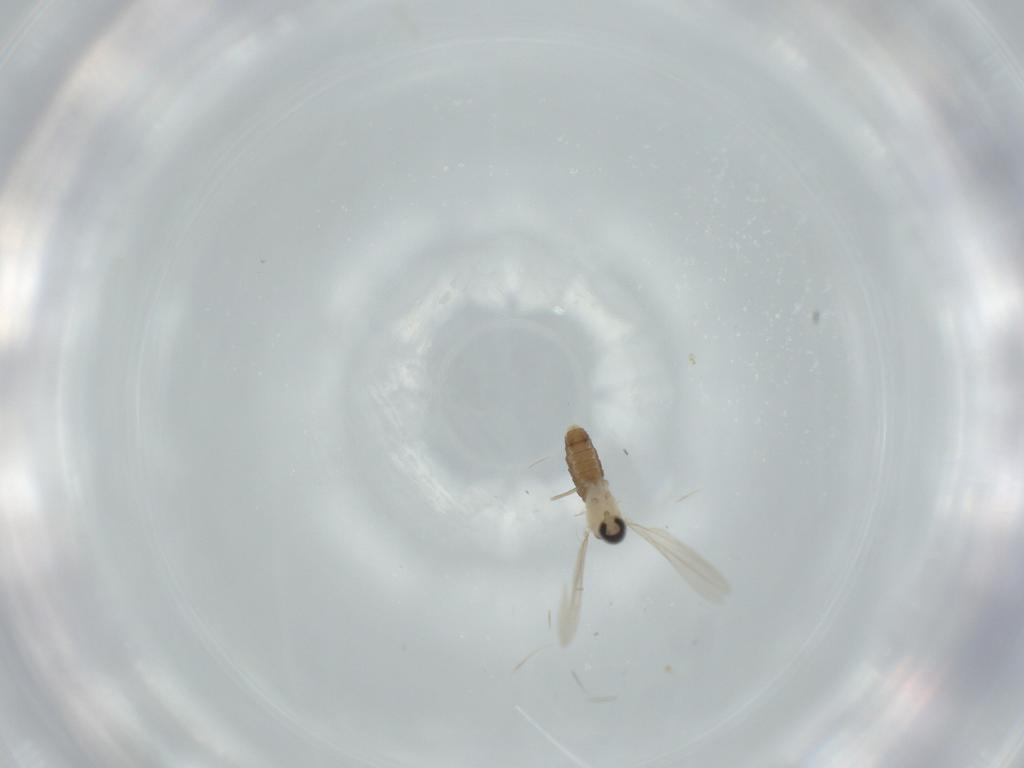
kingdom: Animalia
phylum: Arthropoda
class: Insecta
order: Diptera
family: Cecidomyiidae
